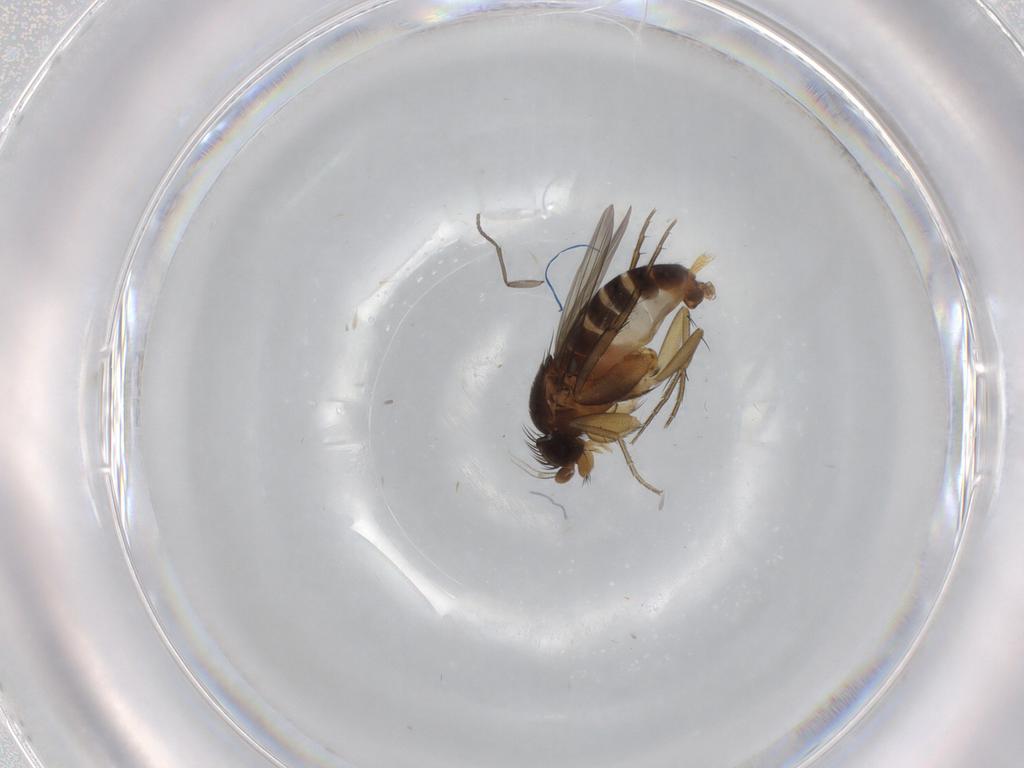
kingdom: Animalia
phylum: Arthropoda
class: Insecta
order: Diptera
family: Phoridae
